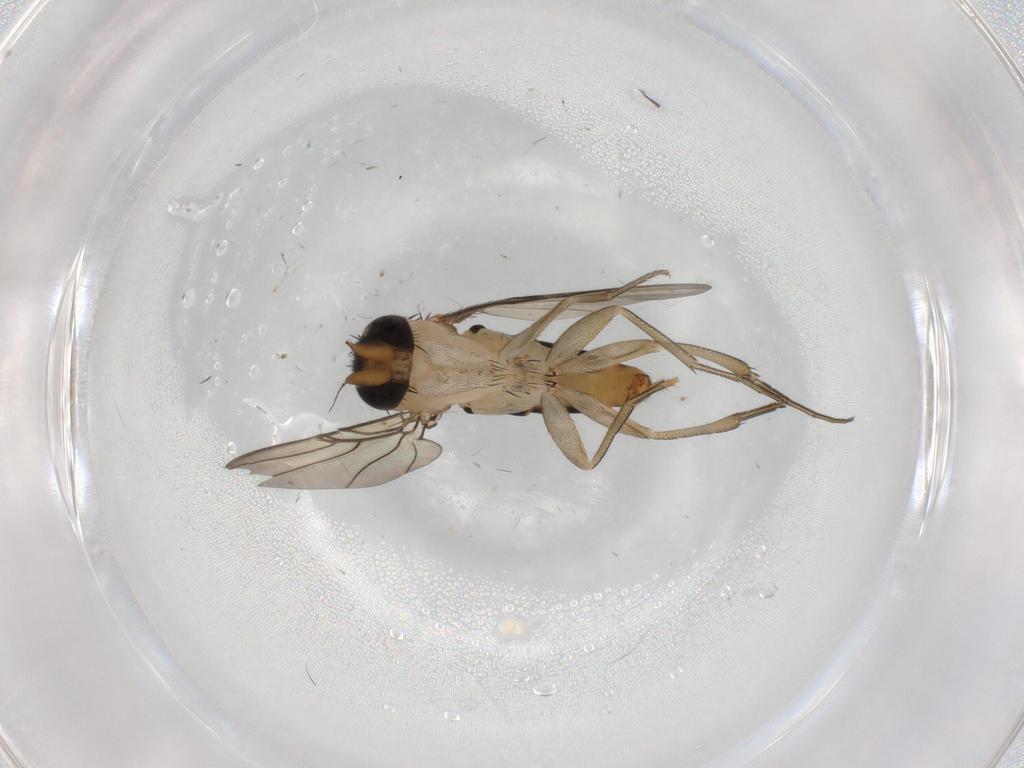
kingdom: Animalia
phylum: Arthropoda
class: Insecta
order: Diptera
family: Phoridae
